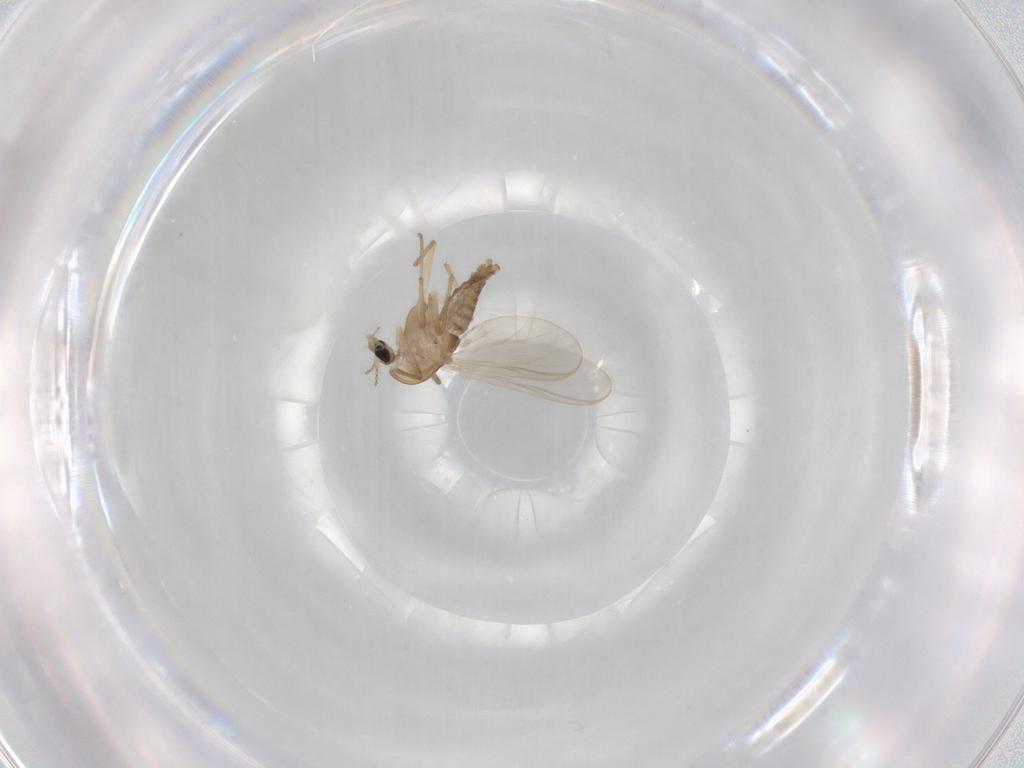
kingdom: Animalia
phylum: Arthropoda
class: Insecta
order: Diptera
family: Chironomidae
